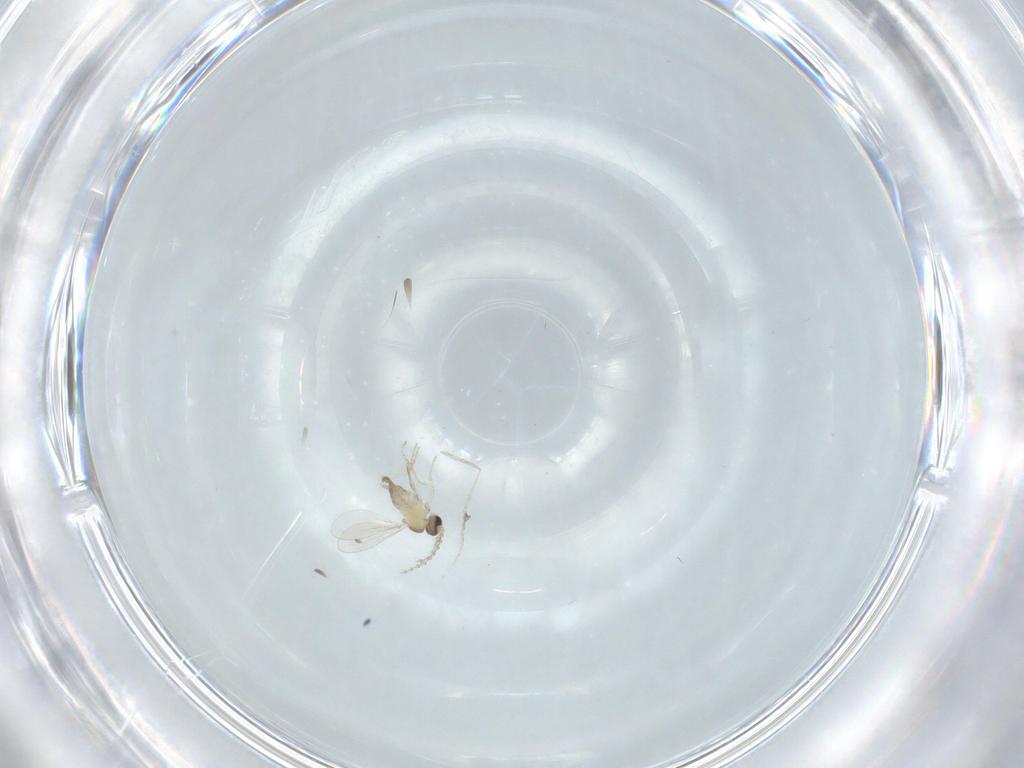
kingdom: Animalia
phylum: Arthropoda
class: Insecta
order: Diptera
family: Cecidomyiidae
